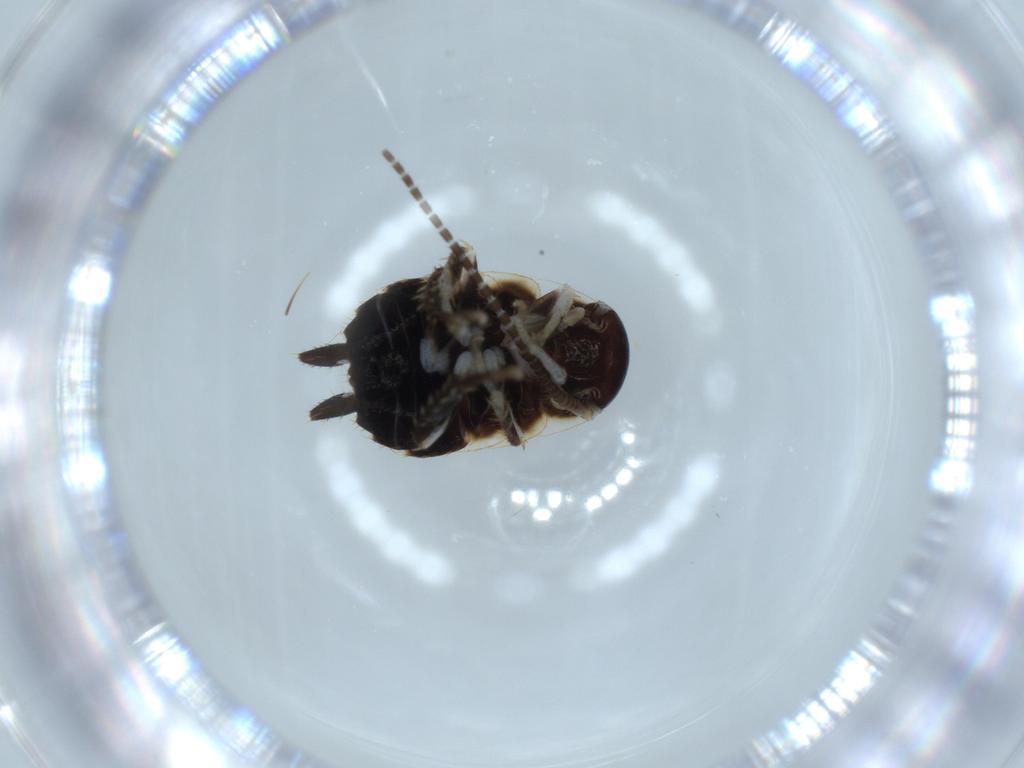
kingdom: Animalia
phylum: Arthropoda
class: Insecta
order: Blattodea
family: Ectobiidae
